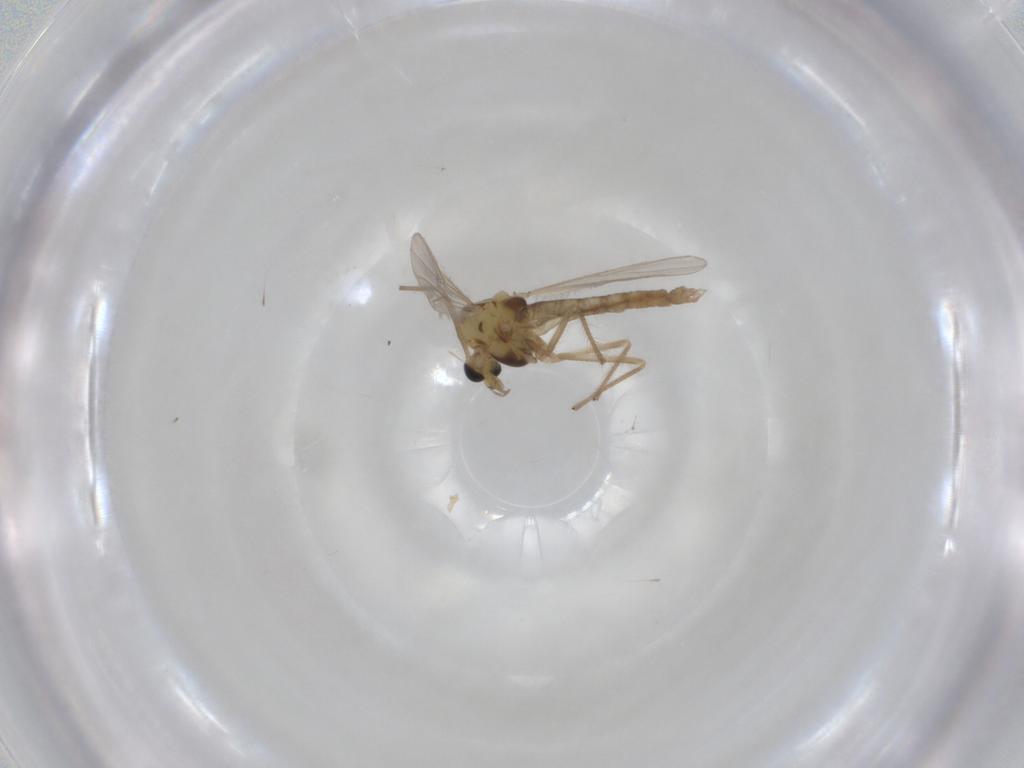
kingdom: Animalia
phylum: Arthropoda
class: Insecta
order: Diptera
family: Chironomidae
